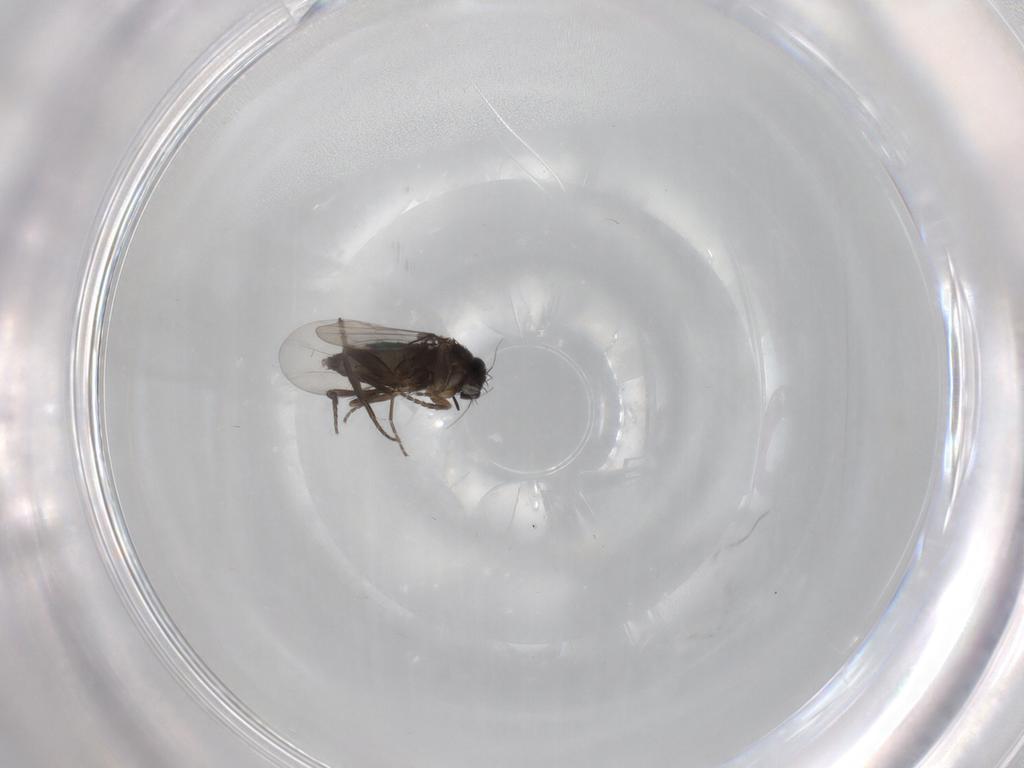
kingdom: Animalia
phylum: Arthropoda
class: Insecta
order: Diptera
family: Phoridae
